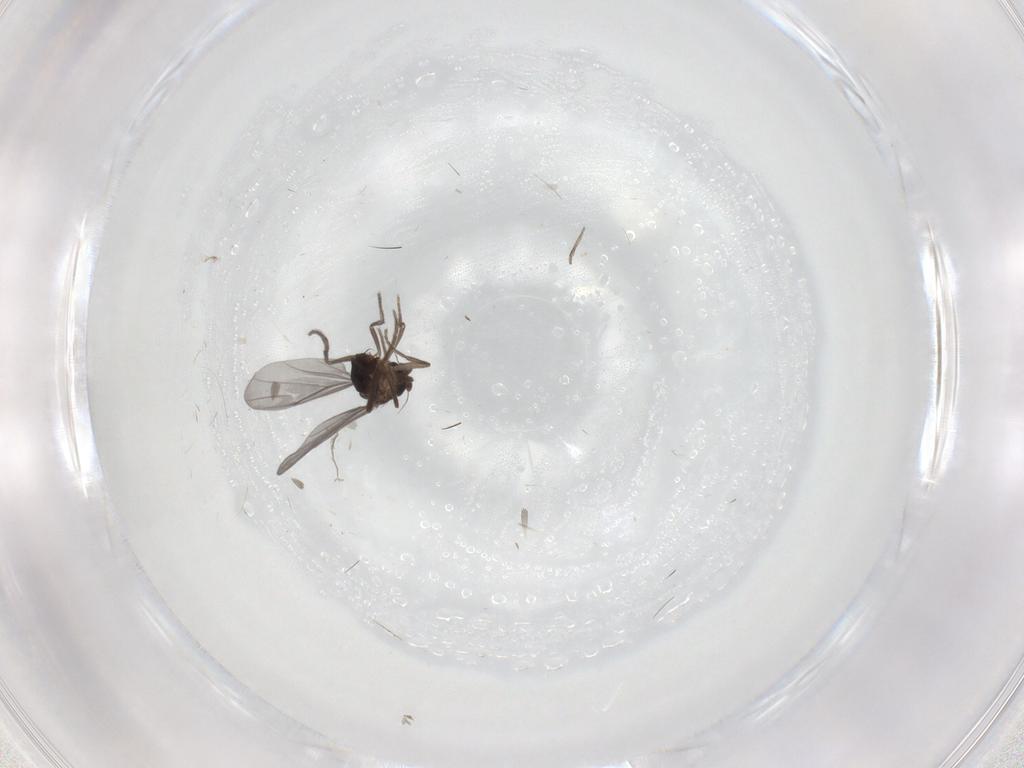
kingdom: Animalia
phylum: Arthropoda
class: Insecta
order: Diptera
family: Phoridae
